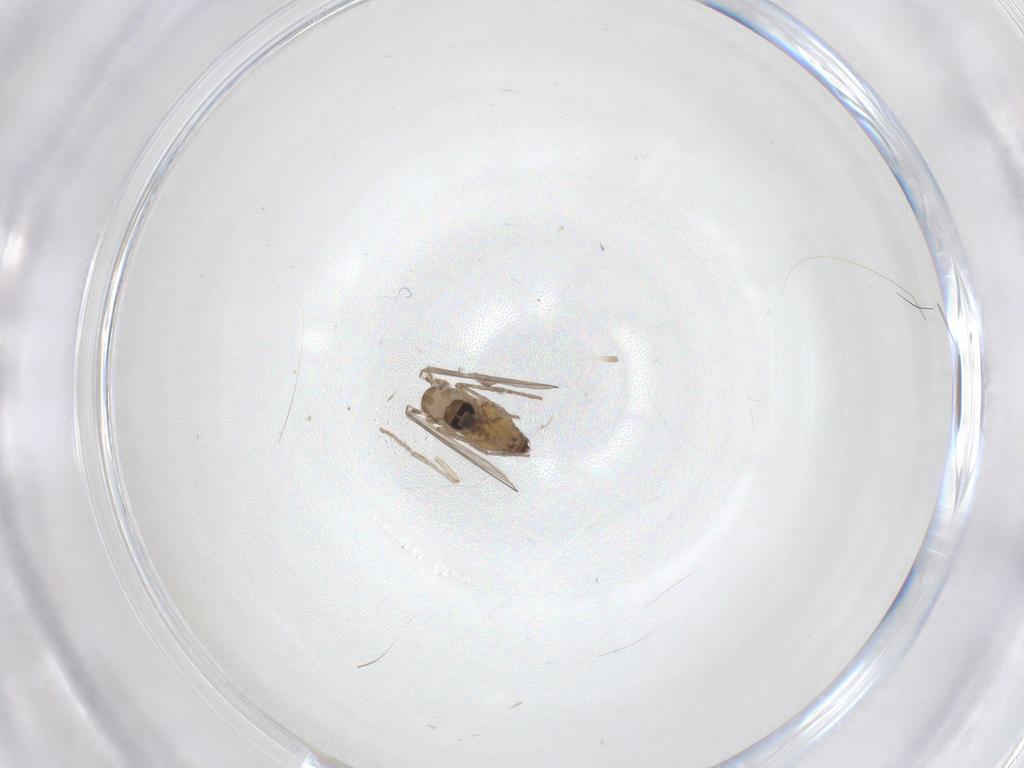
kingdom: Animalia
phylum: Arthropoda
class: Insecta
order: Diptera
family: Psychodidae
